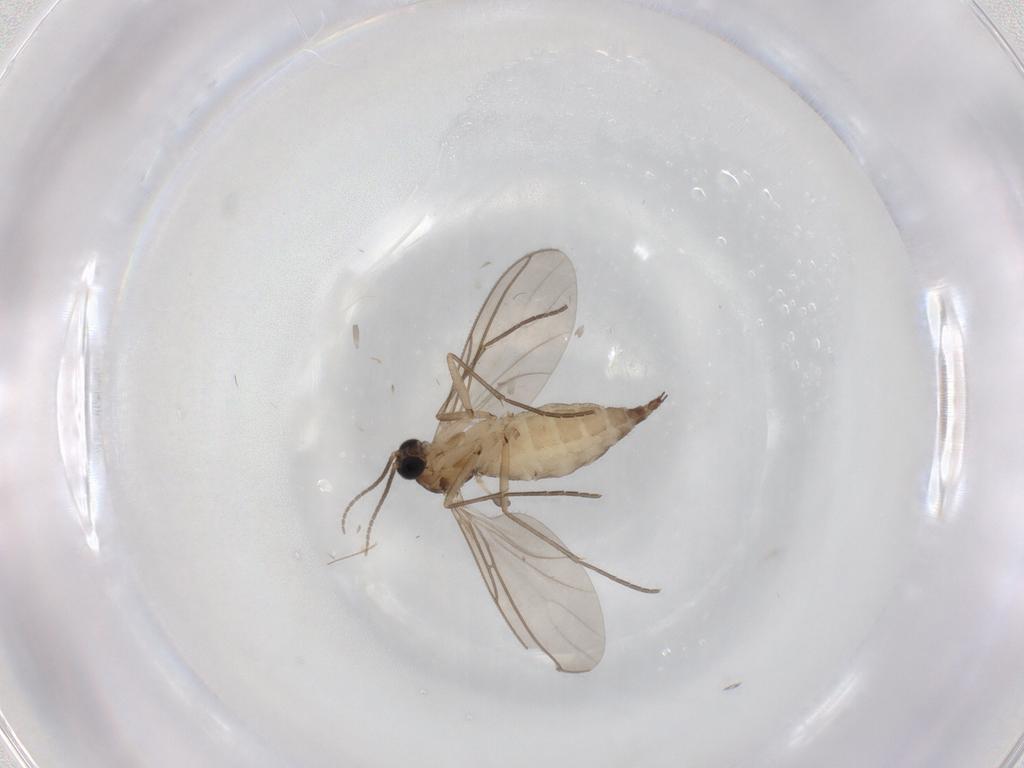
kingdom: Animalia
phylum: Arthropoda
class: Insecta
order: Diptera
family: Sciaridae
